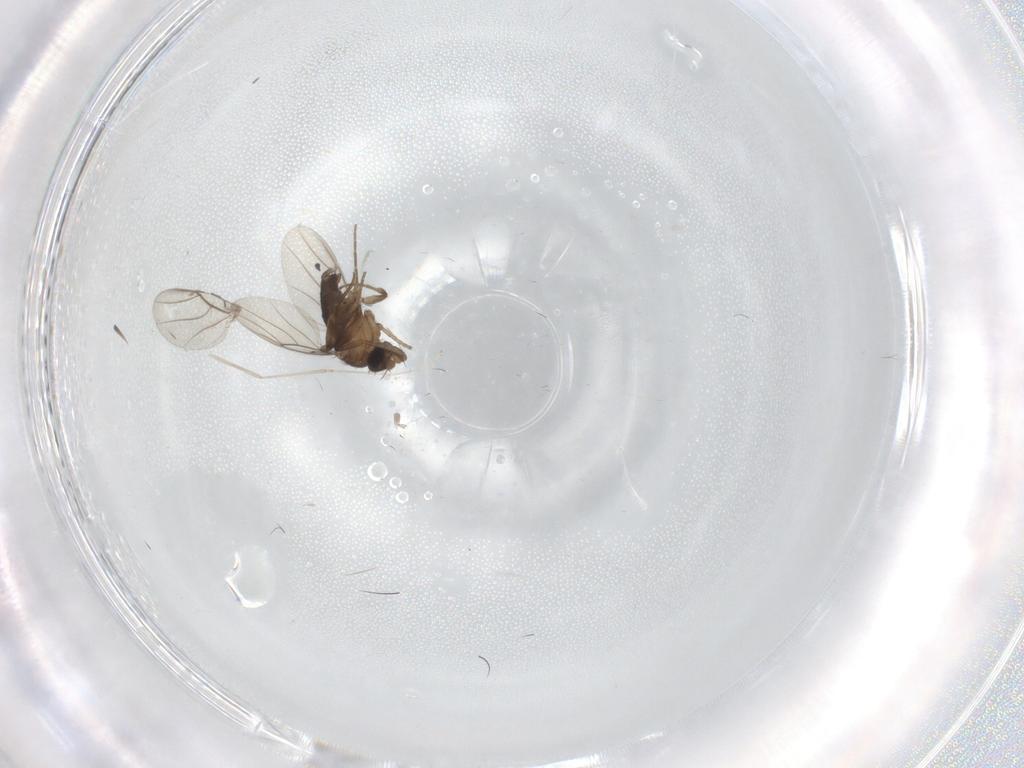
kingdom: Animalia
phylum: Arthropoda
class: Insecta
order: Diptera
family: Cecidomyiidae
